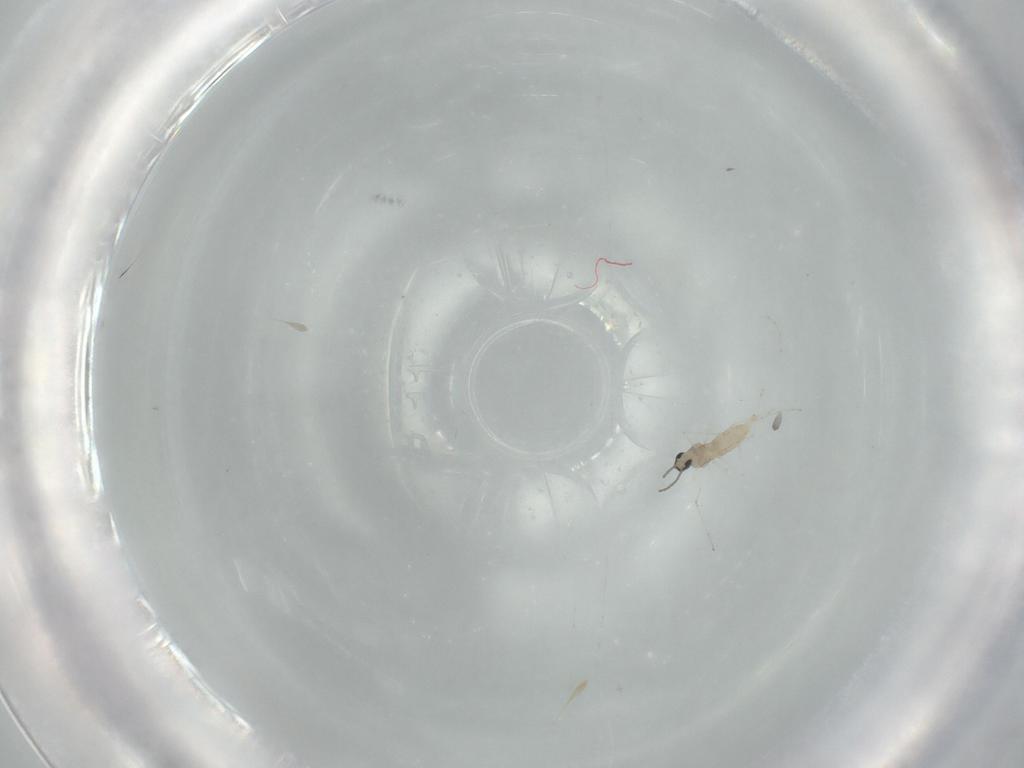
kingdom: Animalia
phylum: Arthropoda
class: Insecta
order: Diptera
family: Cecidomyiidae
